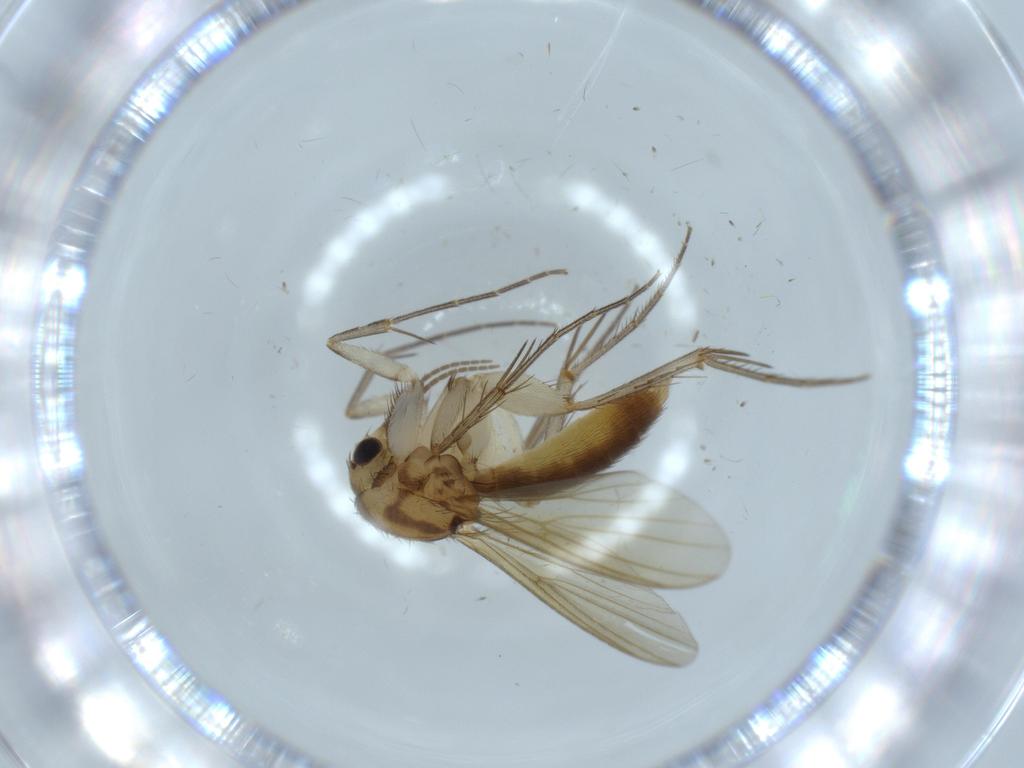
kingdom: Animalia
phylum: Arthropoda
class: Insecta
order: Diptera
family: Mycetophilidae
